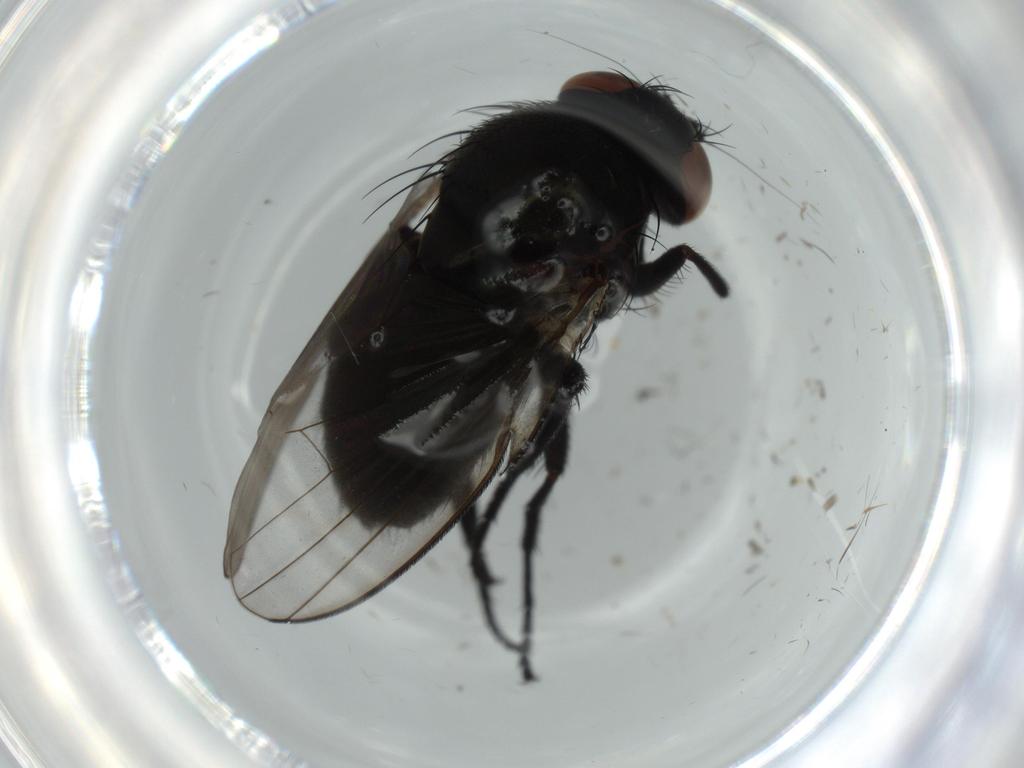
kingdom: Animalia
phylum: Arthropoda
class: Insecta
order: Diptera
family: Milichiidae
